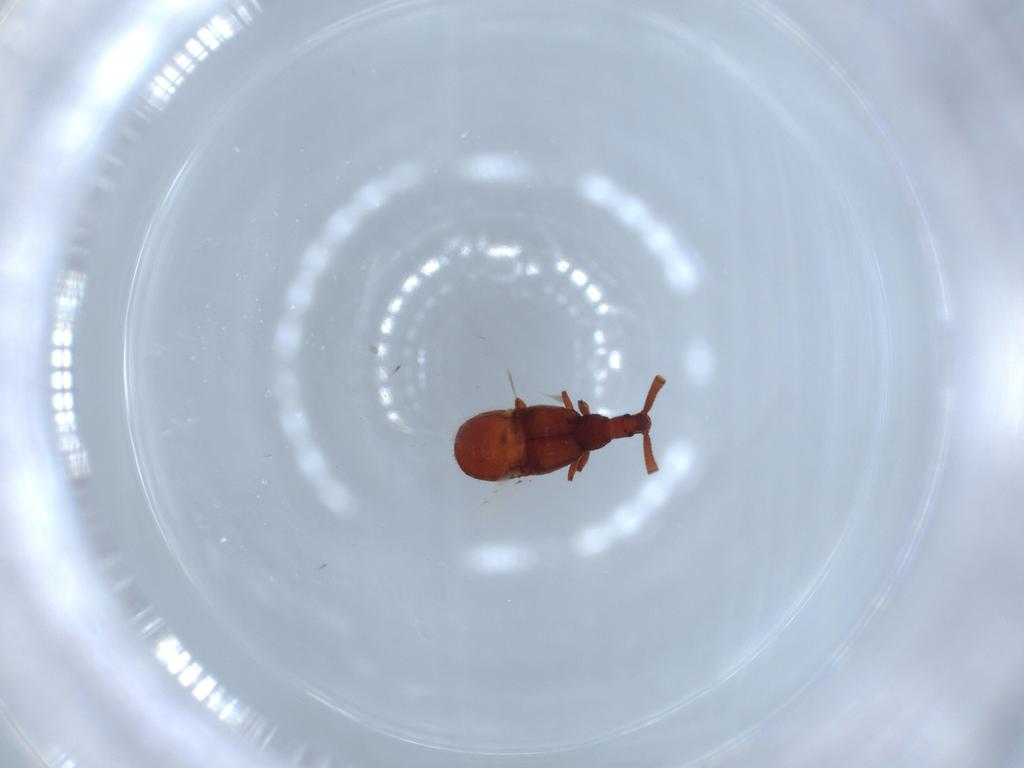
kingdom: Animalia
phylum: Arthropoda
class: Insecta
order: Coleoptera
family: Staphylinidae
